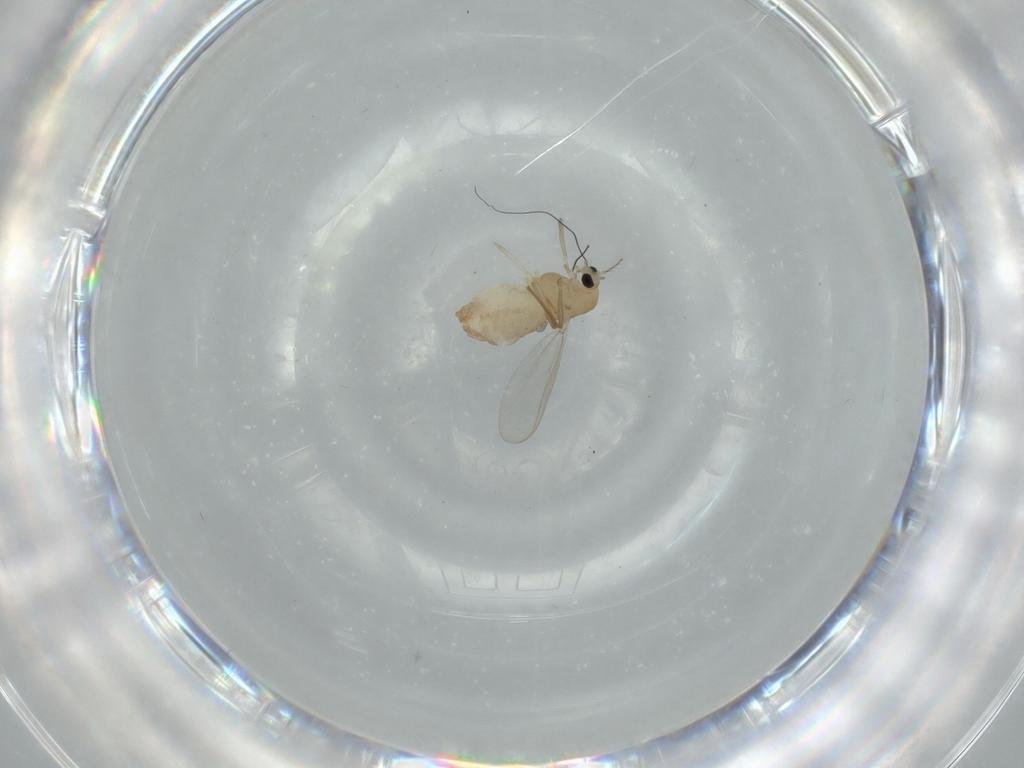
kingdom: Animalia
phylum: Arthropoda
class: Insecta
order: Diptera
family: Chironomidae
